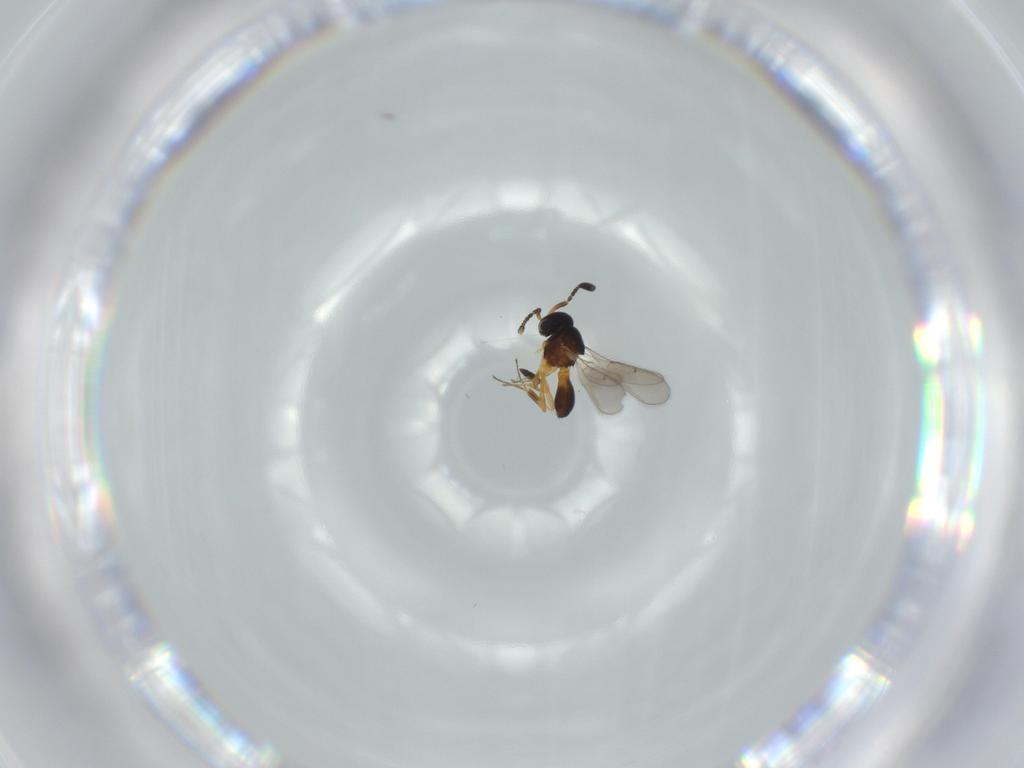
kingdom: Animalia
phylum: Arthropoda
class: Insecta
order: Hymenoptera
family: Scelionidae
